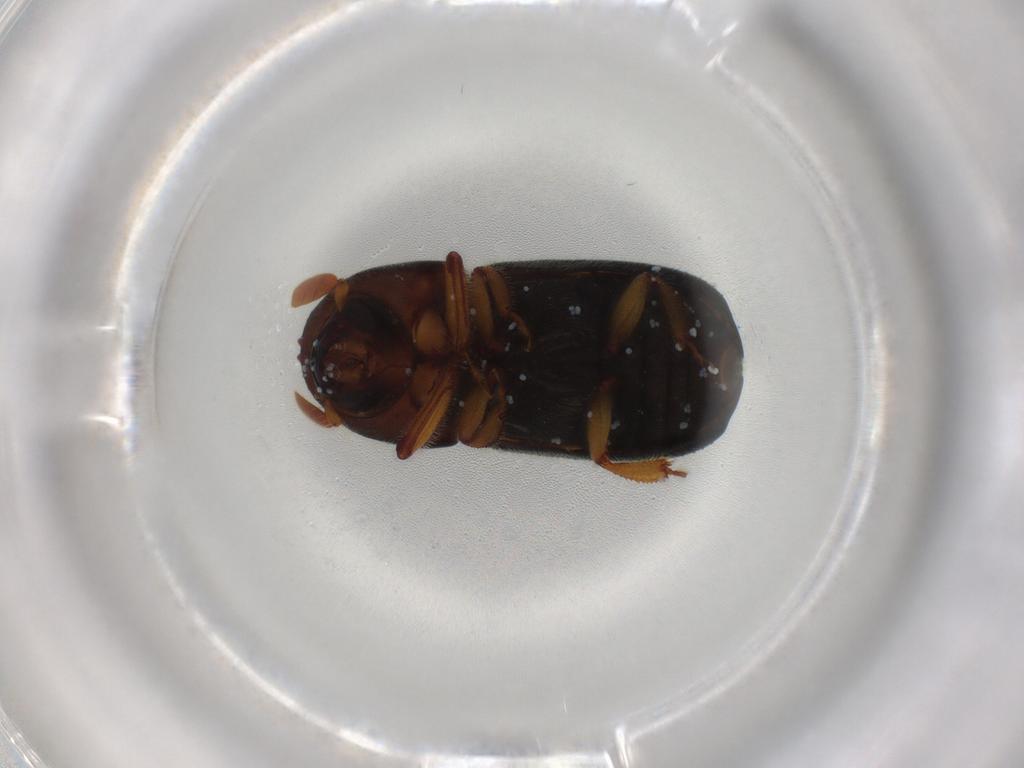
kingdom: Animalia
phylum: Arthropoda
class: Insecta
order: Coleoptera
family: Curculionidae
